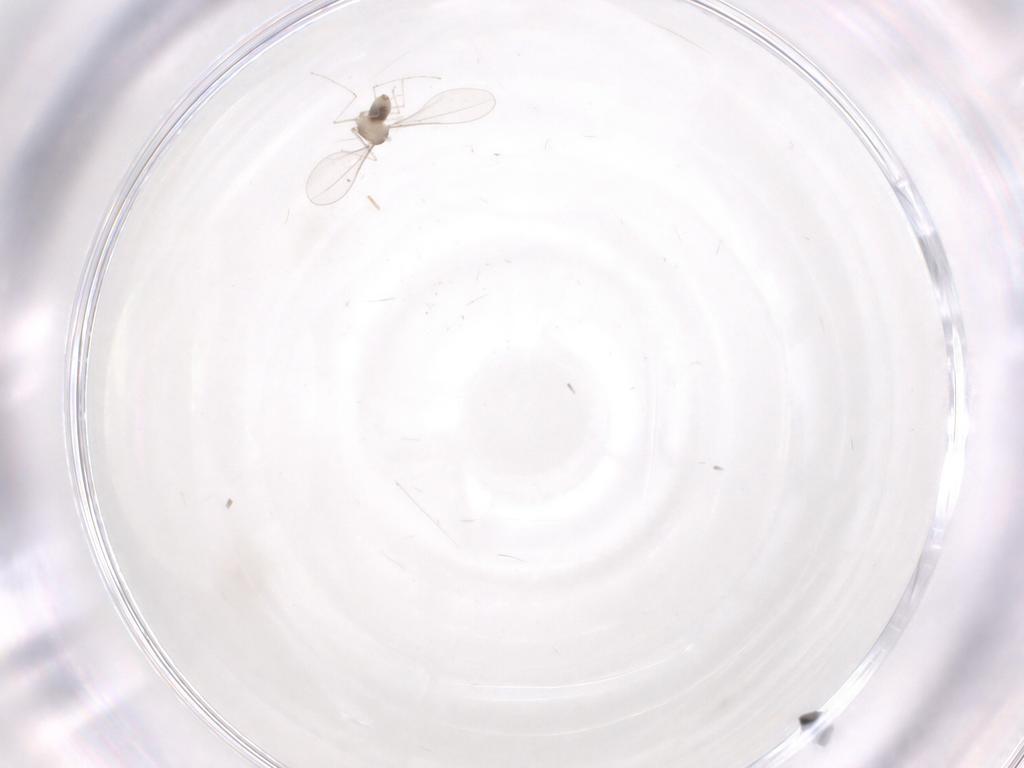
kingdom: Animalia
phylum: Arthropoda
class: Insecta
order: Diptera
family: Cecidomyiidae
